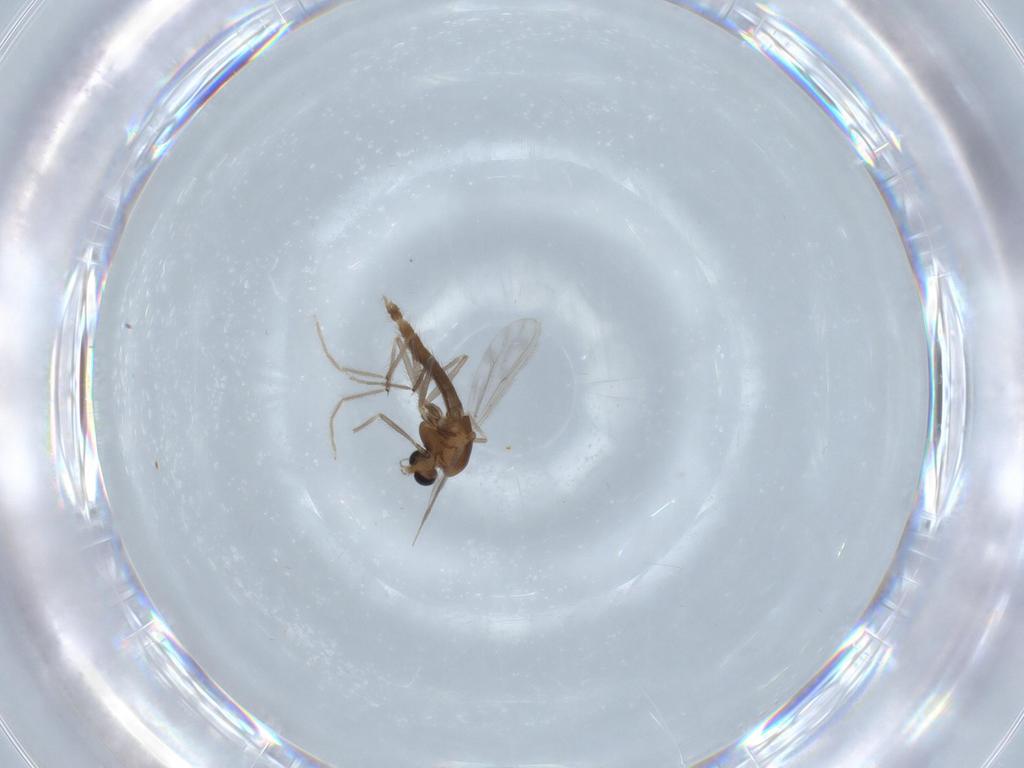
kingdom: Animalia
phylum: Arthropoda
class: Insecta
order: Diptera
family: Chironomidae
